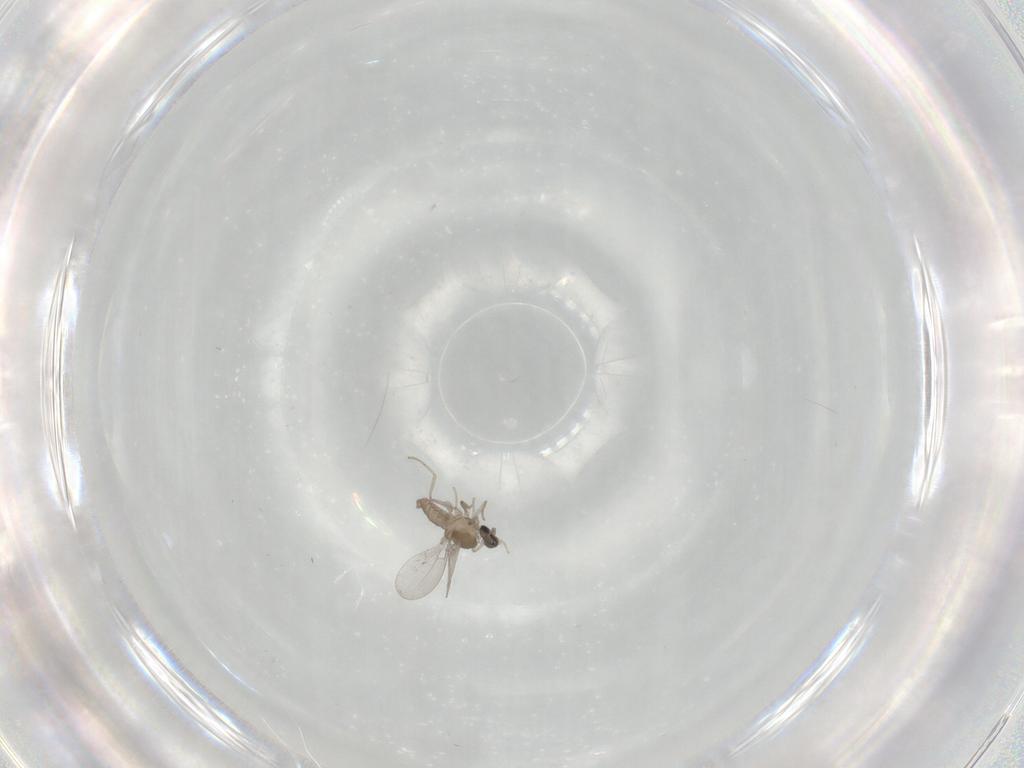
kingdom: Animalia
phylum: Arthropoda
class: Insecta
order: Diptera
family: Cecidomyiidae
